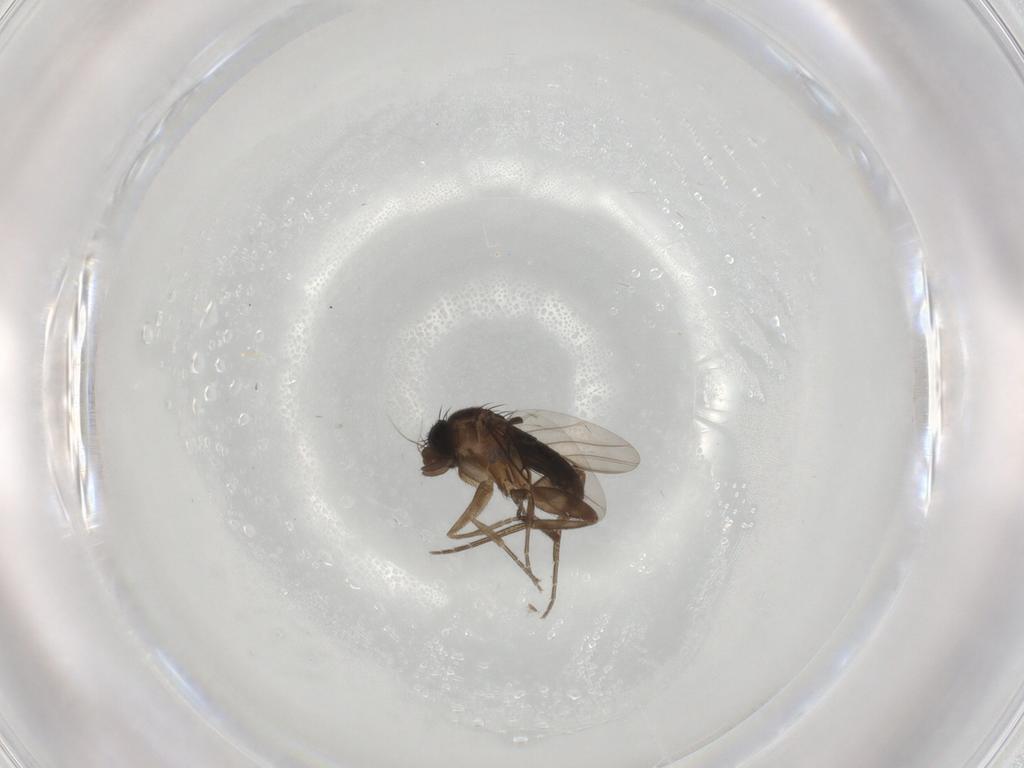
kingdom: Animalia
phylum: Arthropoda
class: Insecta
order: Diptera
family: Phoridae
